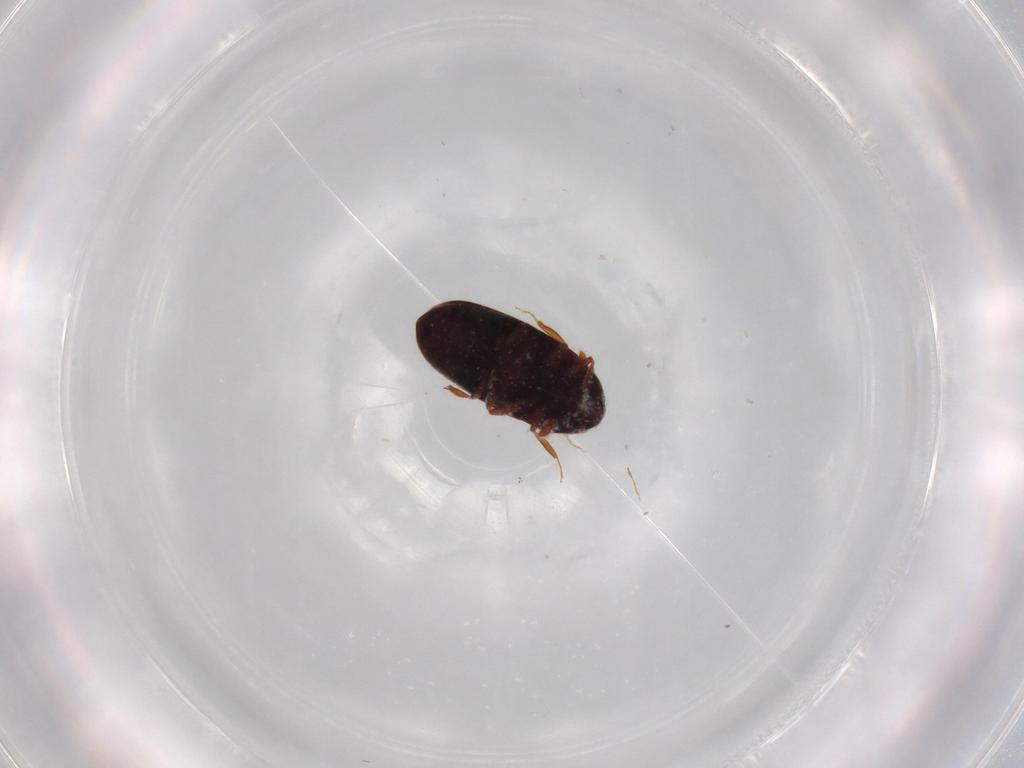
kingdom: Animalia
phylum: Arthropoda
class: Insecta
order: Coleoptera
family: Throscidae
